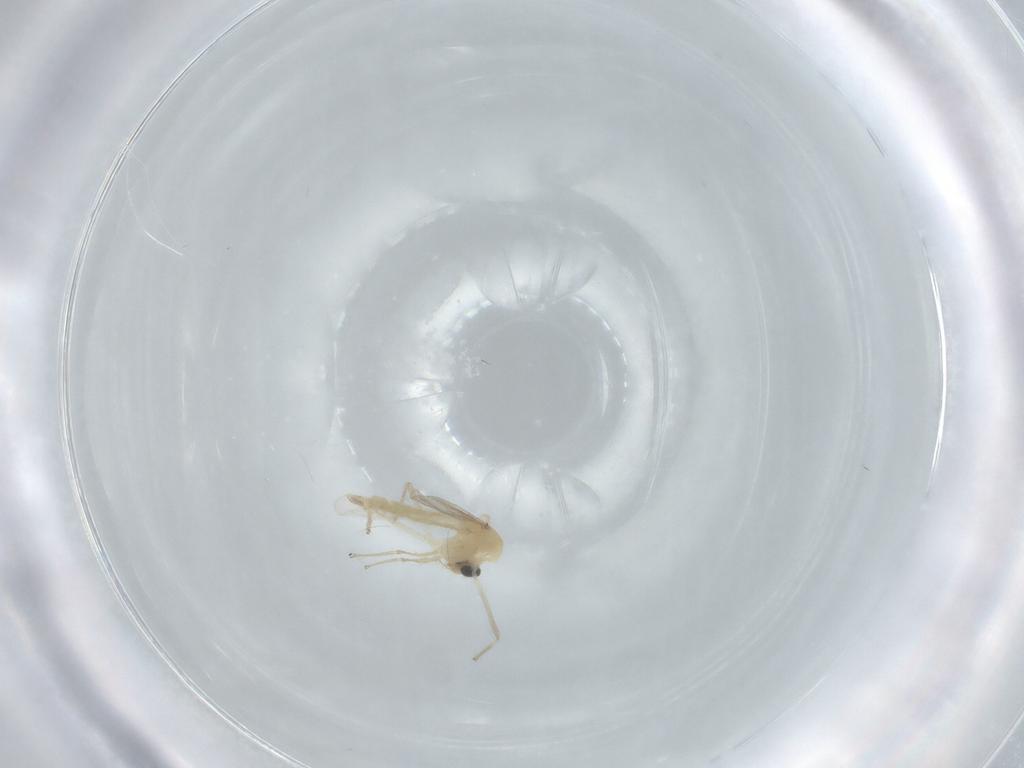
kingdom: Animalia
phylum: Arthropoda
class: Insecta
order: Diptera
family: Chironomidae
